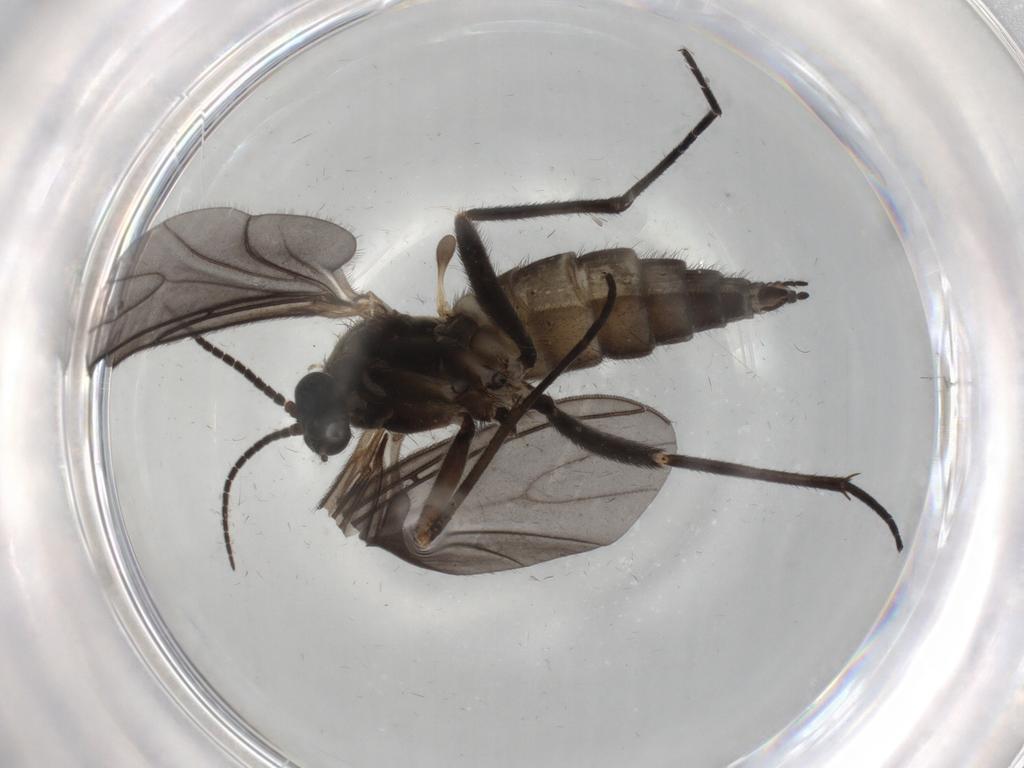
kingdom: Animalia
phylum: Arthropoda
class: Insecta
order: Diptera
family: Sciaridae
